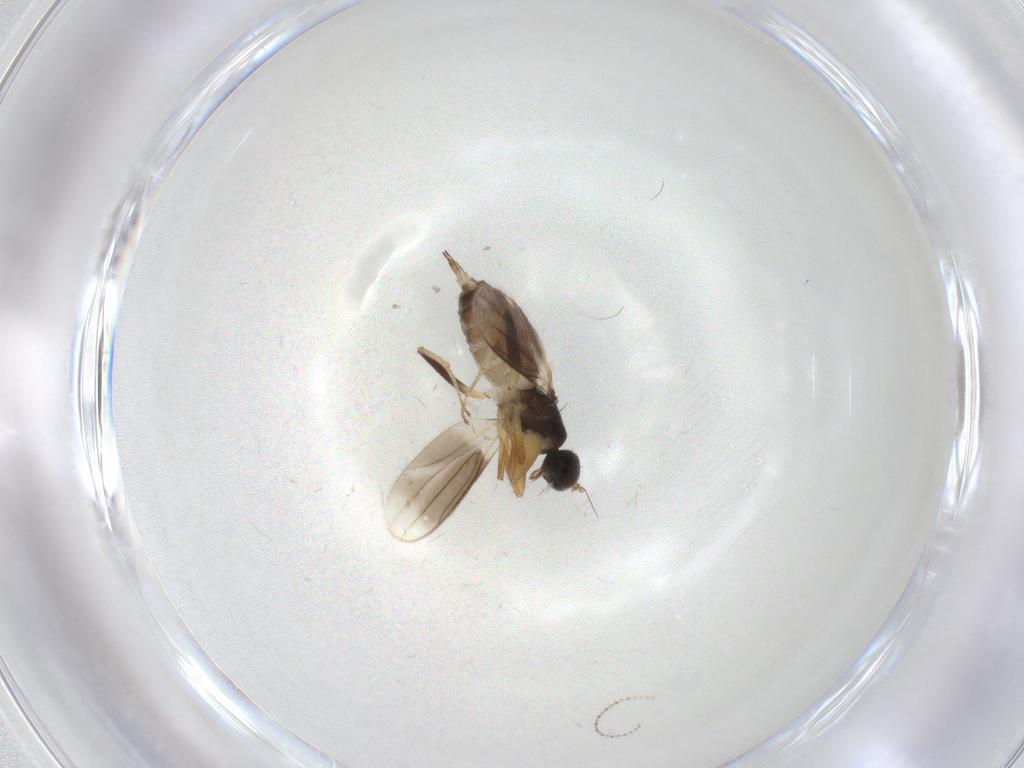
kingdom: Animalia
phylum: Arthropoda
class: Insecta
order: Diptera
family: Hybotidae
